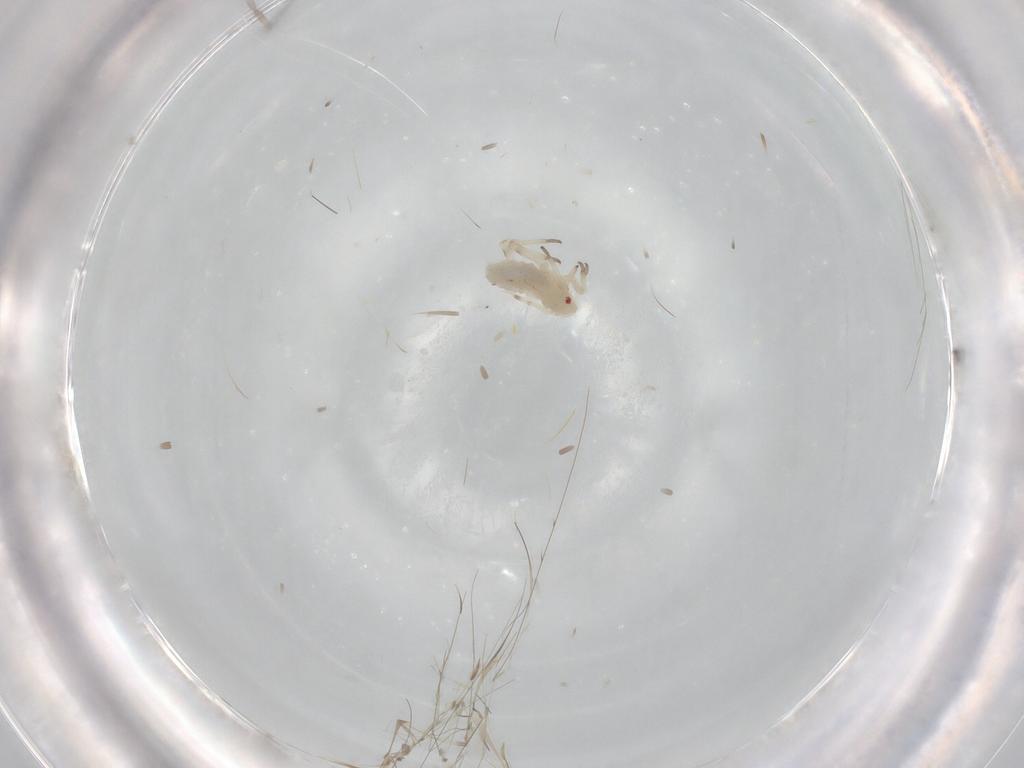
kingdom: Animalia
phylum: Arthropoda
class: Insecta
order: Hemiptera
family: Aphididae
